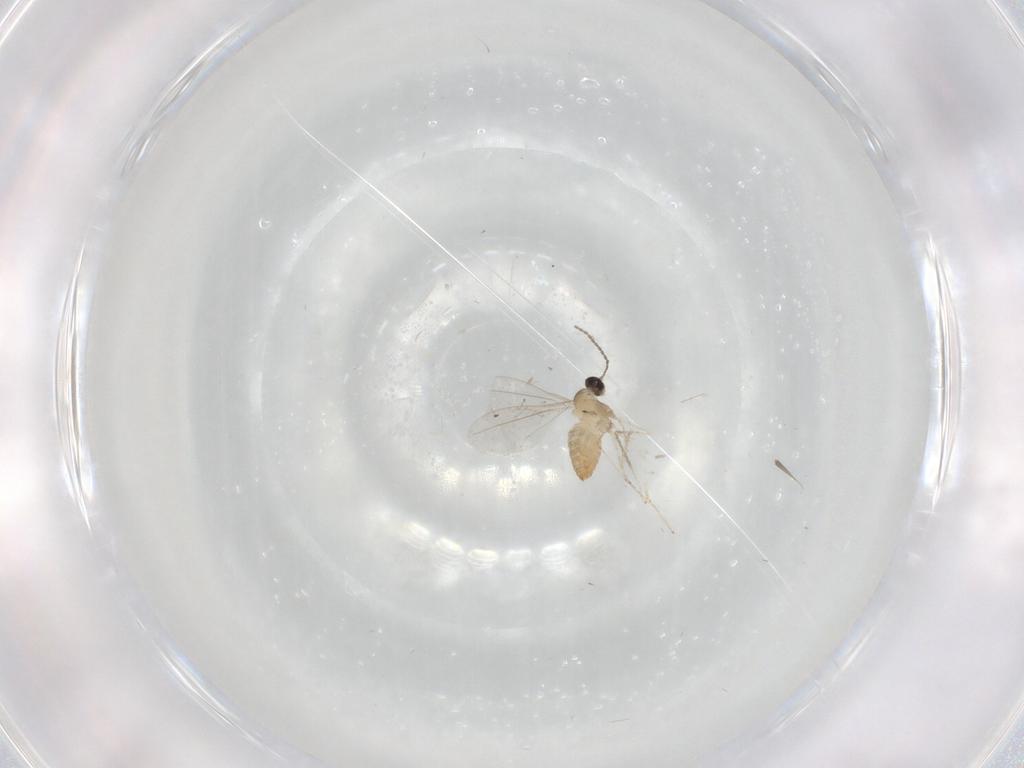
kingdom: Animalia
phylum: Arthropoda
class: Insecta
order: Diptera
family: Cecidomyiidae
